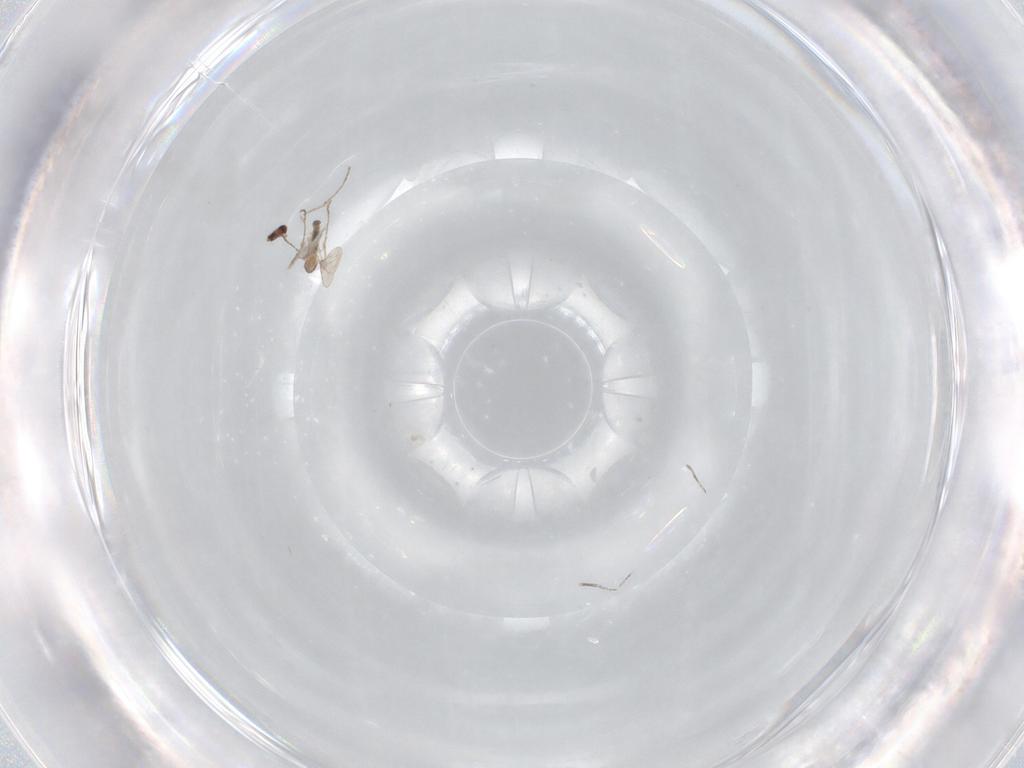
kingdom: Animalia
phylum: Arthropoda
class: Insecta
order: Diptera
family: Cecidomyiidae
